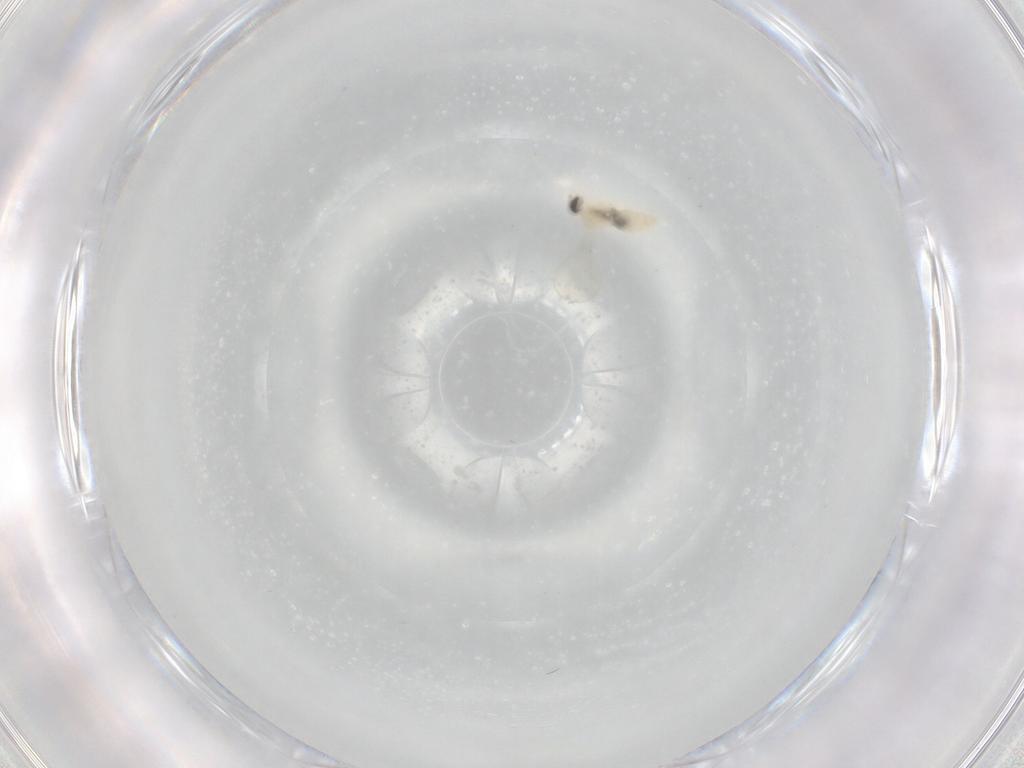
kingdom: Animalia
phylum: Arthropoda
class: Insecta
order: Diptera
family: Cecidomyiidae
